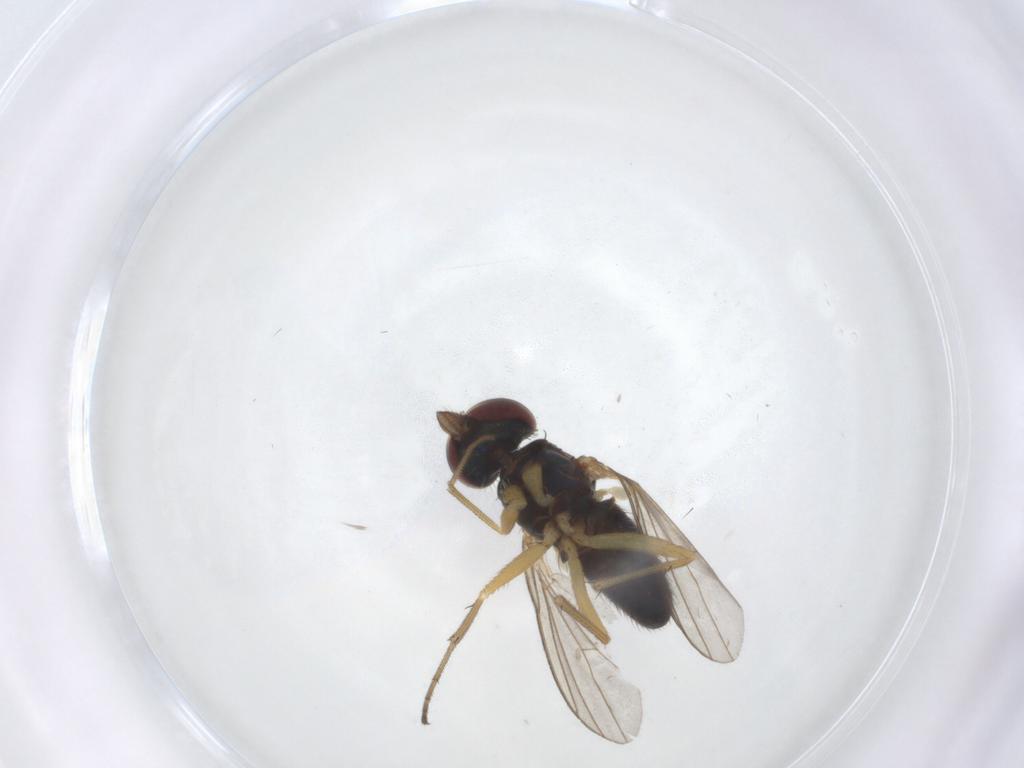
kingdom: Animalia
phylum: Arthropoda
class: Insecta
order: Diptera
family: Dolichopodidae
